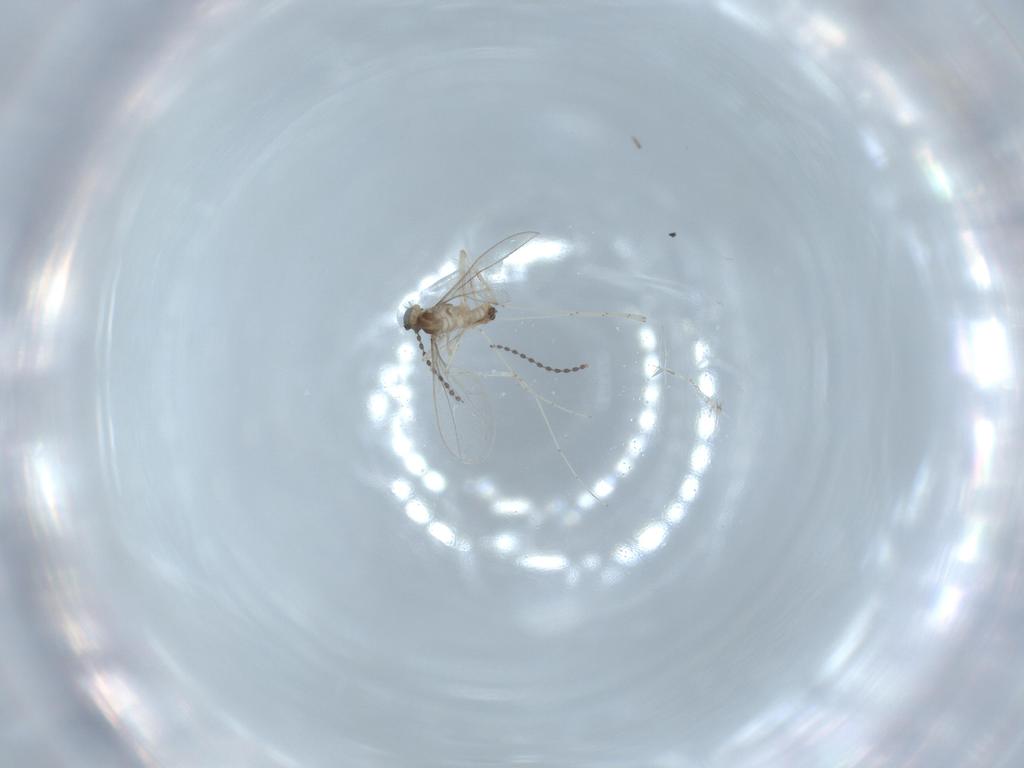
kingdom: Animalia
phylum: Arthropoda
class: Insecta
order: Diptera
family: Cecidomyiidae
